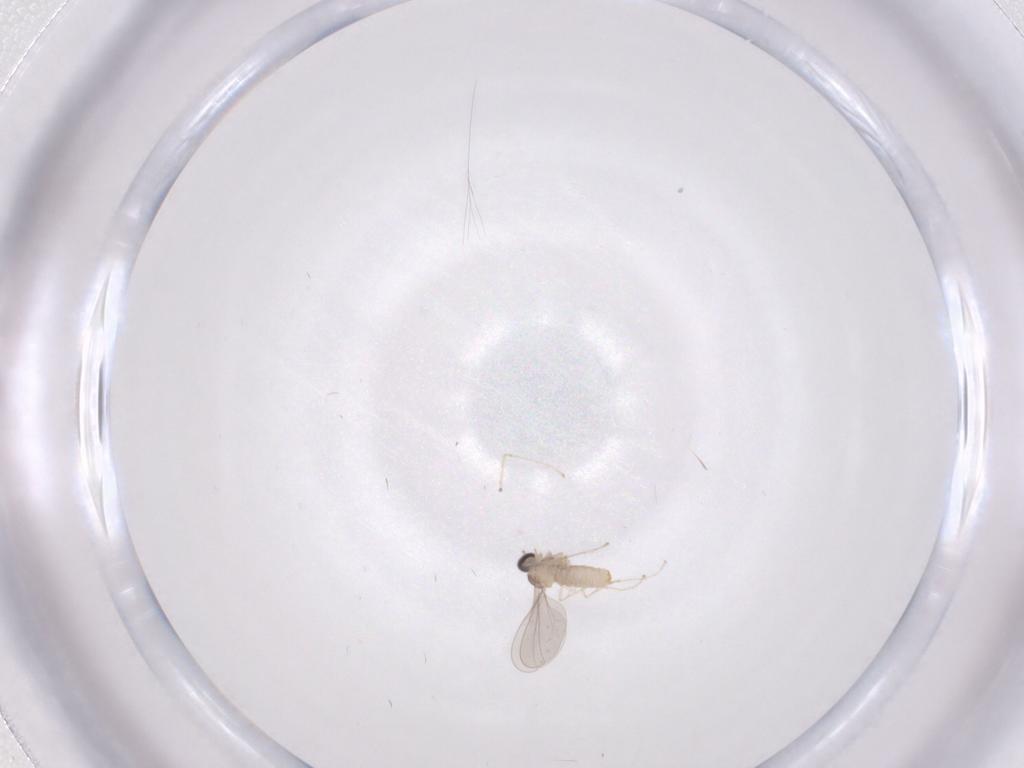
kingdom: Animalia
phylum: Arthropoda
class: Insecta
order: Diptera
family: Cecidomyiidae
